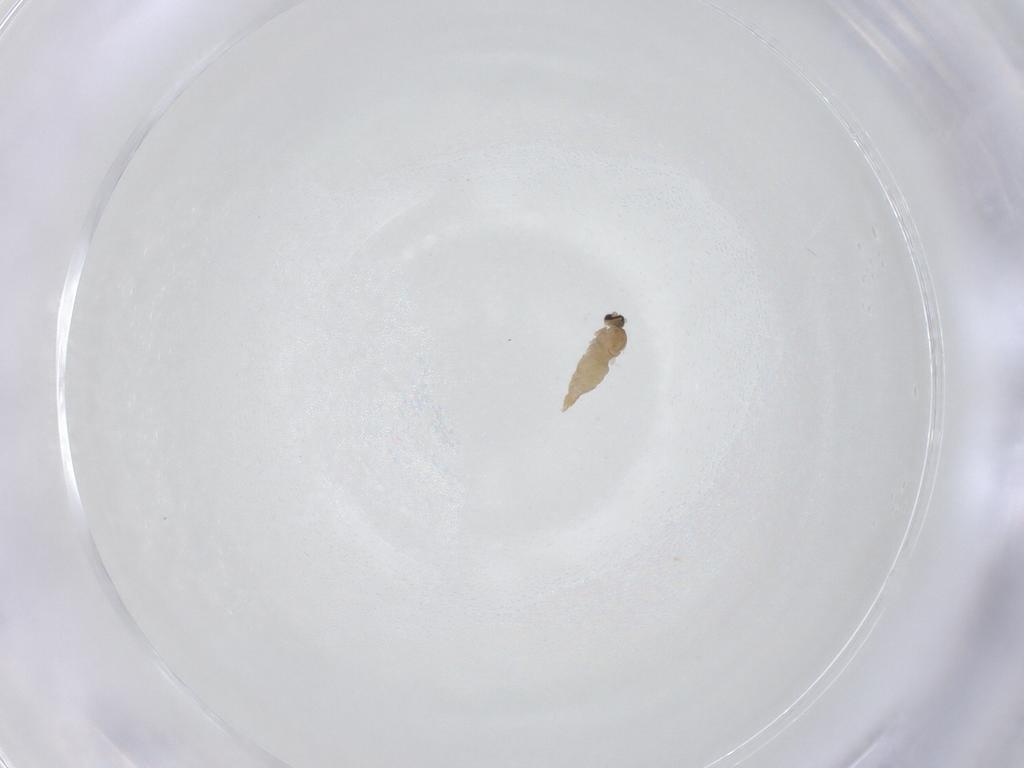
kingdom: Animalia
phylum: Arthropoda
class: Insecta
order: Diptera
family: Cecidomyiidae
